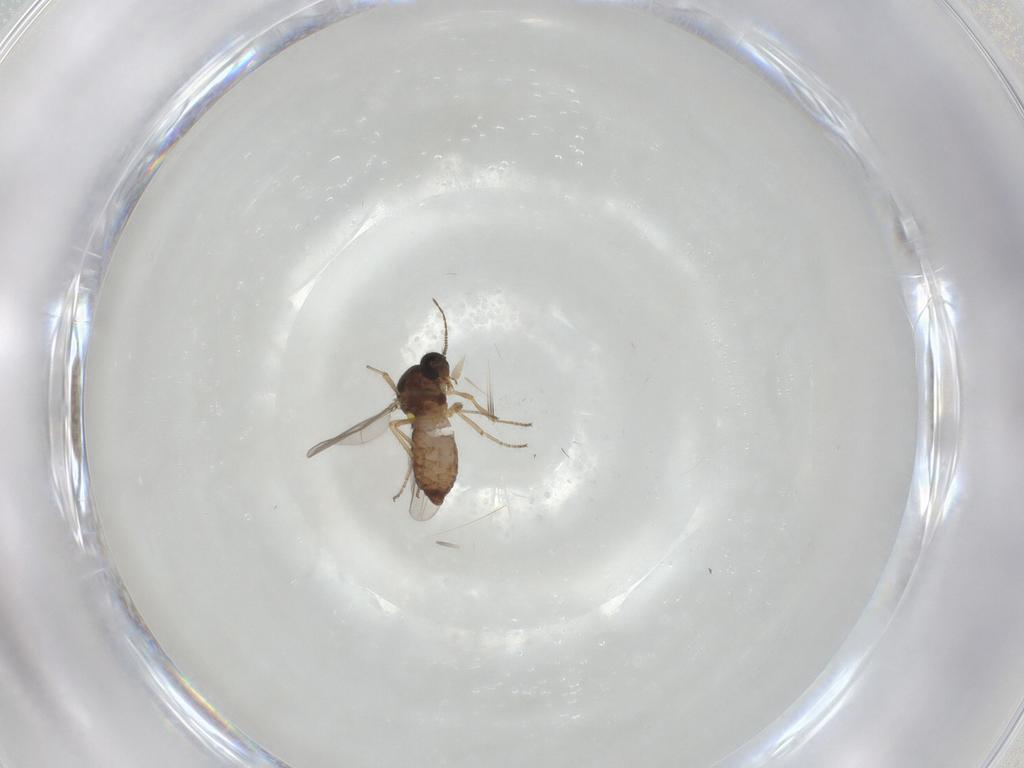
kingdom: Animalia
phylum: Arthropoda
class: Insecta
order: Diptera
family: Ceratopogonidae
